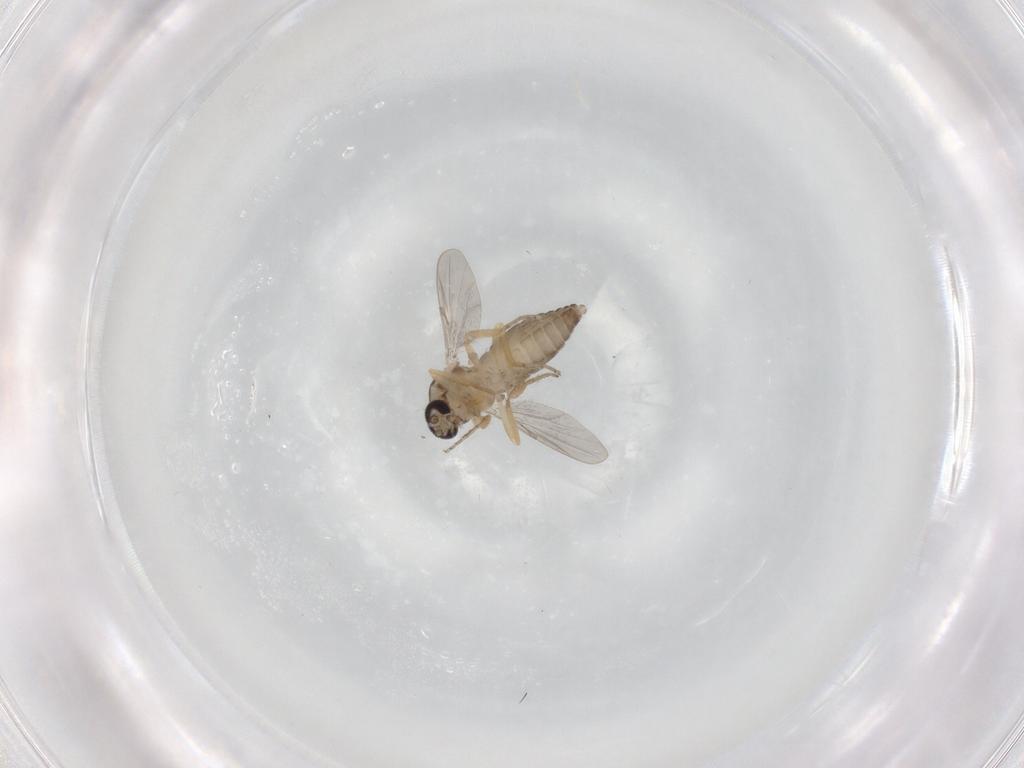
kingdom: Animalia
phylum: Arthropoda
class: Insecta
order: Diptera
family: Ceratopogonidae
